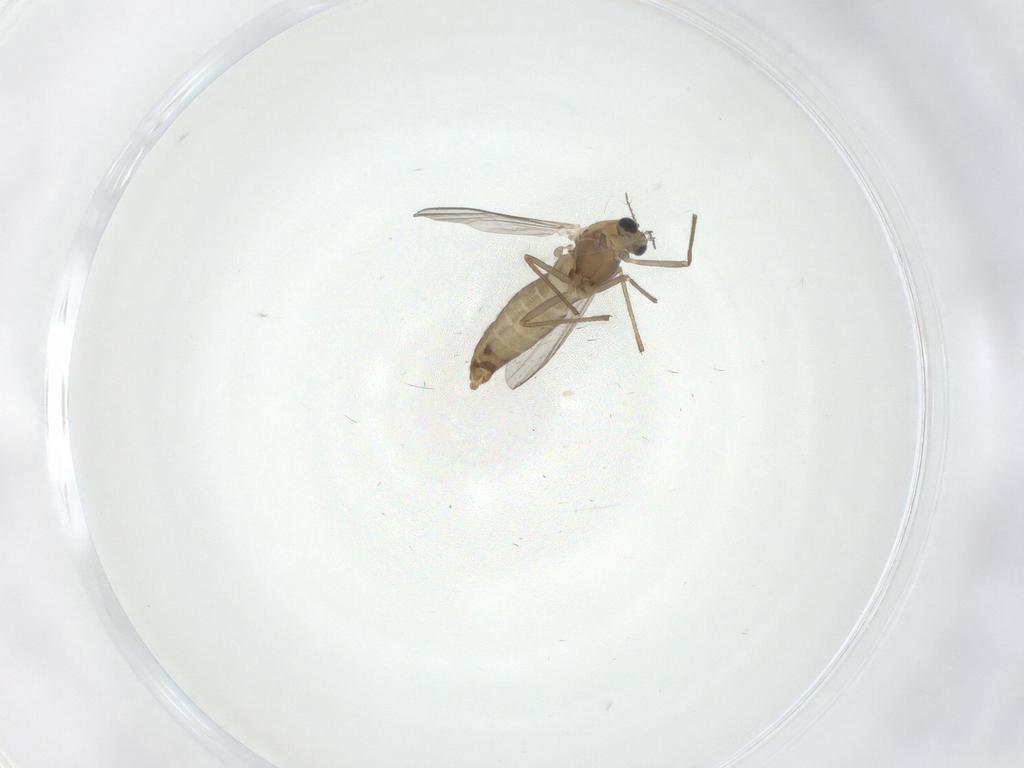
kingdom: Animalia
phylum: Arthropoda
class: Insecta
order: Diptera
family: Chironomidae
